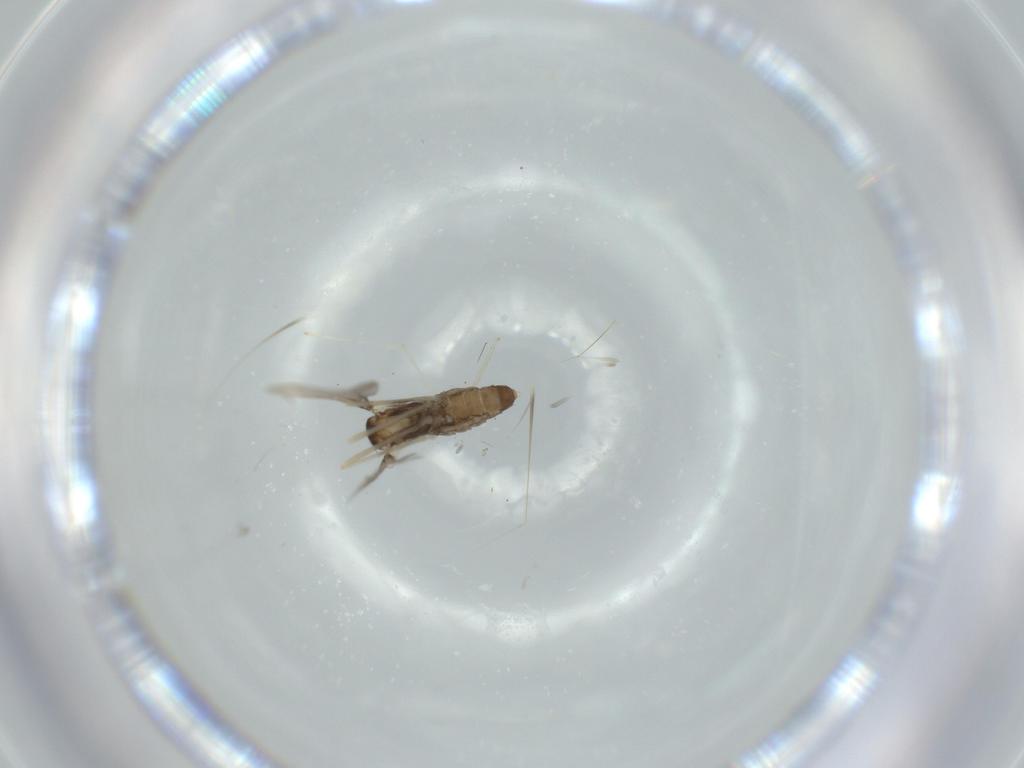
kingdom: Animalia
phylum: Arthropoda
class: Insecta
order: Diptera
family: Cecidomyiidae
